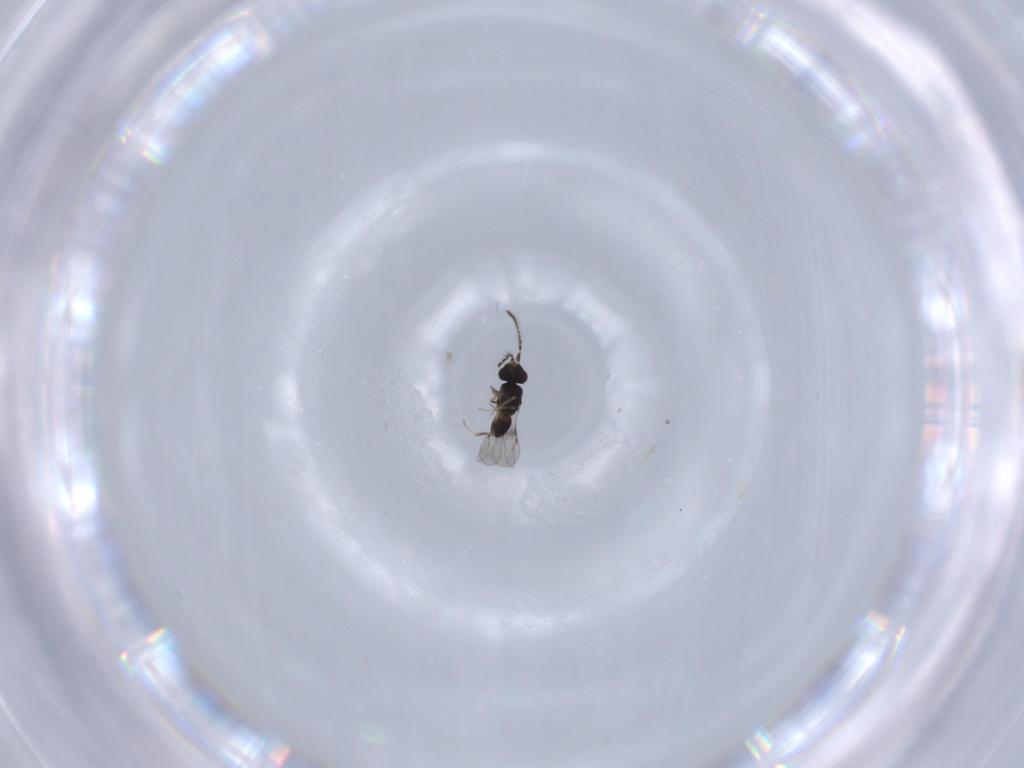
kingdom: Animalia
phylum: Arthropoda
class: Insecta
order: Hymenoptera
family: Ceraphronidae
